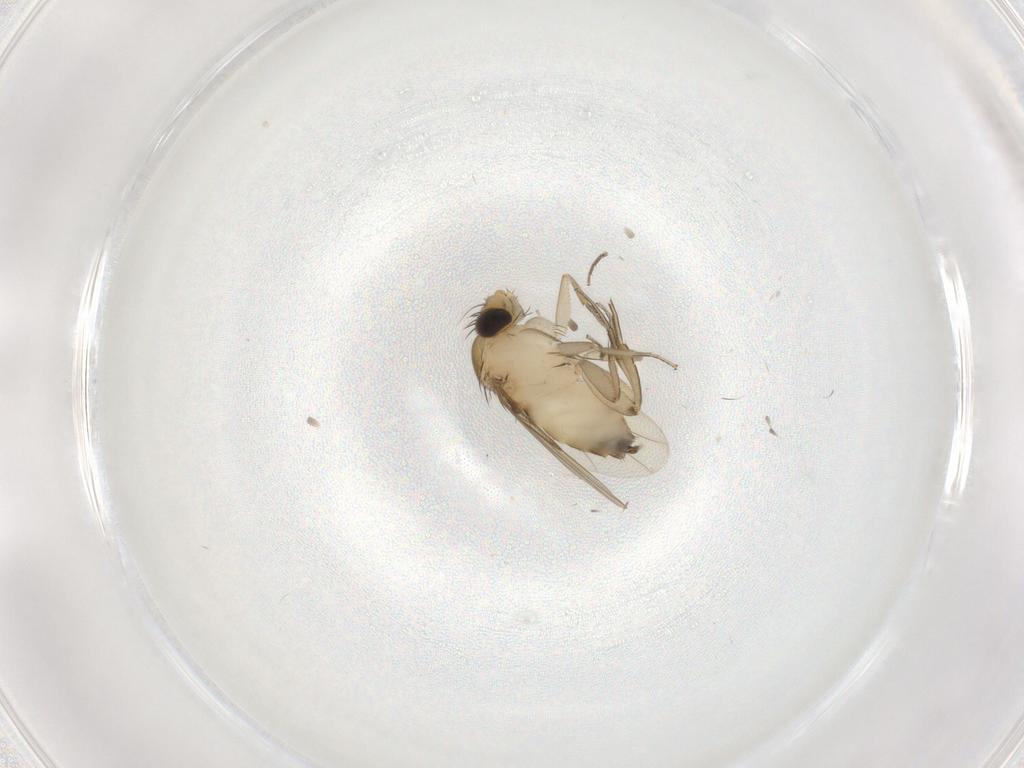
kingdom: Animalia
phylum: Arthropoda
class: Insecta
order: Diptera
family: Phoridae
